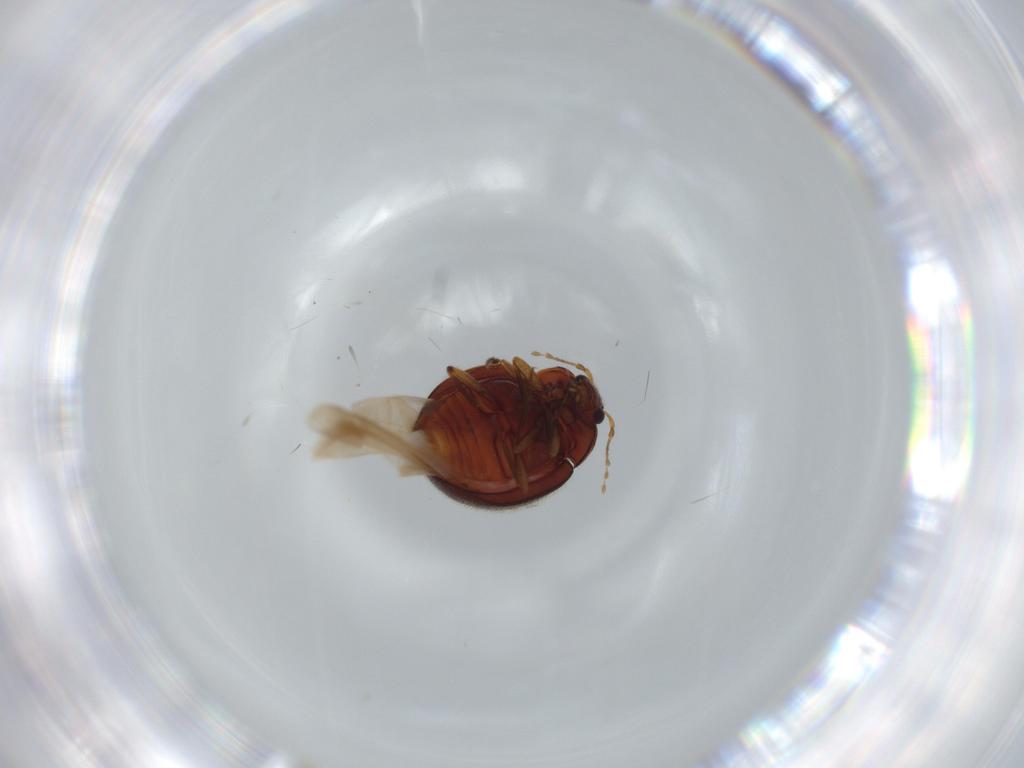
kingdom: Animalia
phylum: Arthropoda
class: Insecta
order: Coleoptera
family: Anamorphidae
